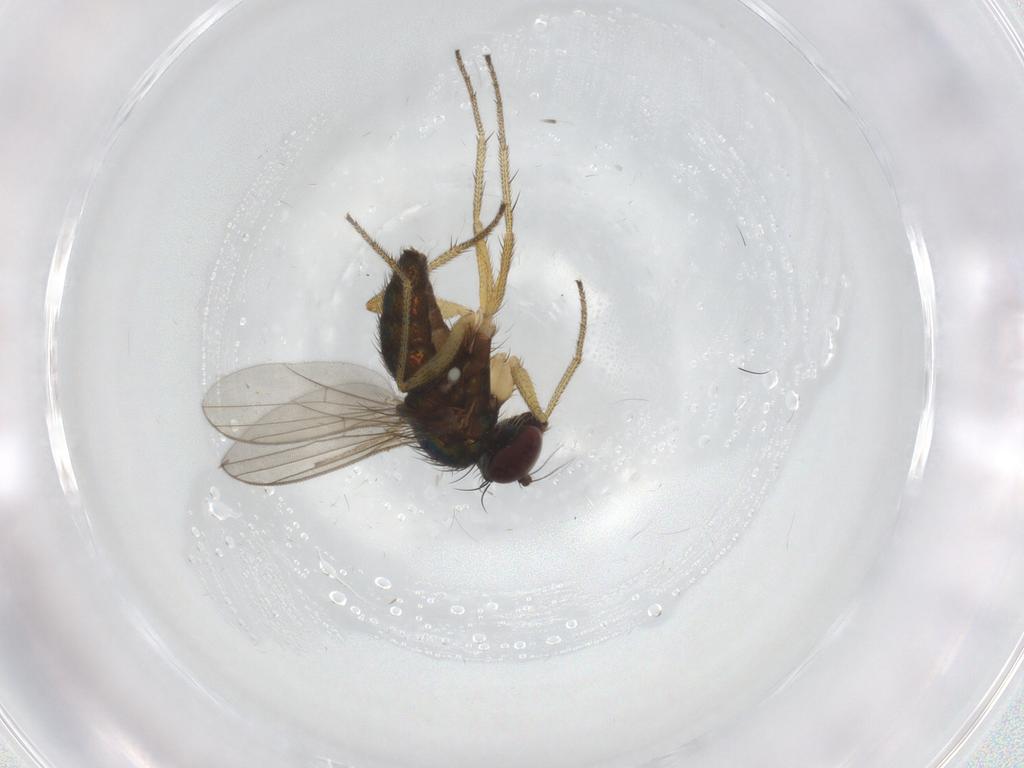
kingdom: Animalia
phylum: Arthropoda
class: Insecta
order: Diptera
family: Dolichopodidae
